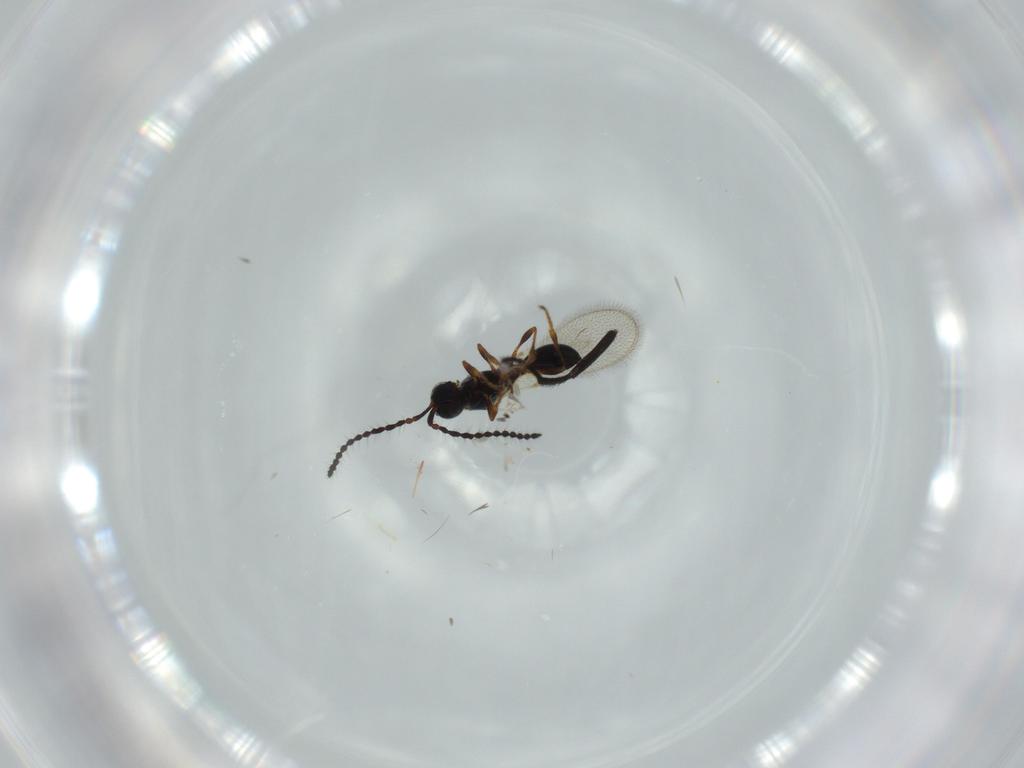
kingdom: Animalia
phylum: Arthropoda
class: Insecta
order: Hymenoptera
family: Diapriidae
